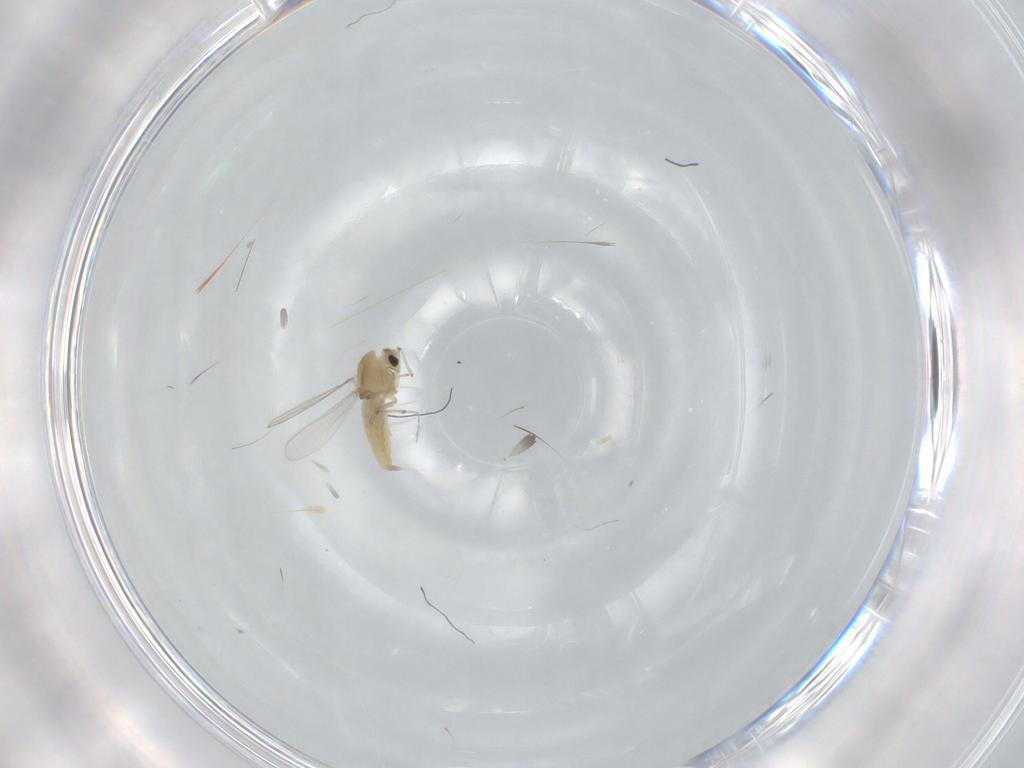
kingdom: Animalia
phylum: Arthropoda
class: Insecta
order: Diptera
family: Chironomidae
